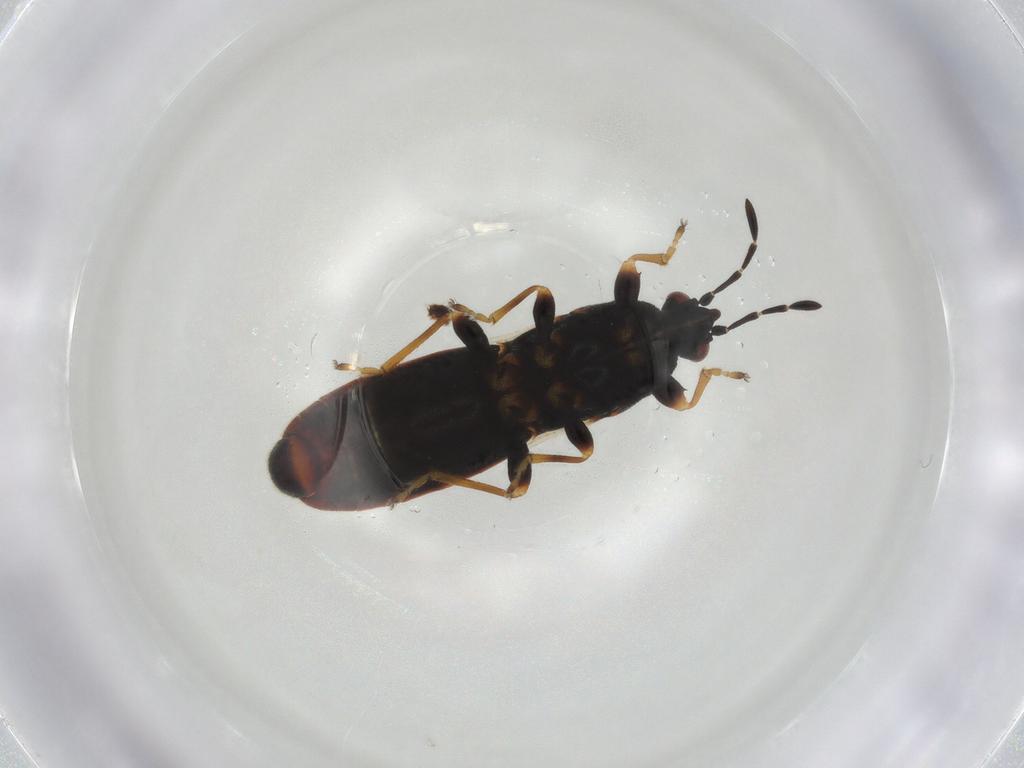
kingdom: Animalia
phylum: Arthropoda
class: Insecta
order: Hemiptera
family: Blissidae
